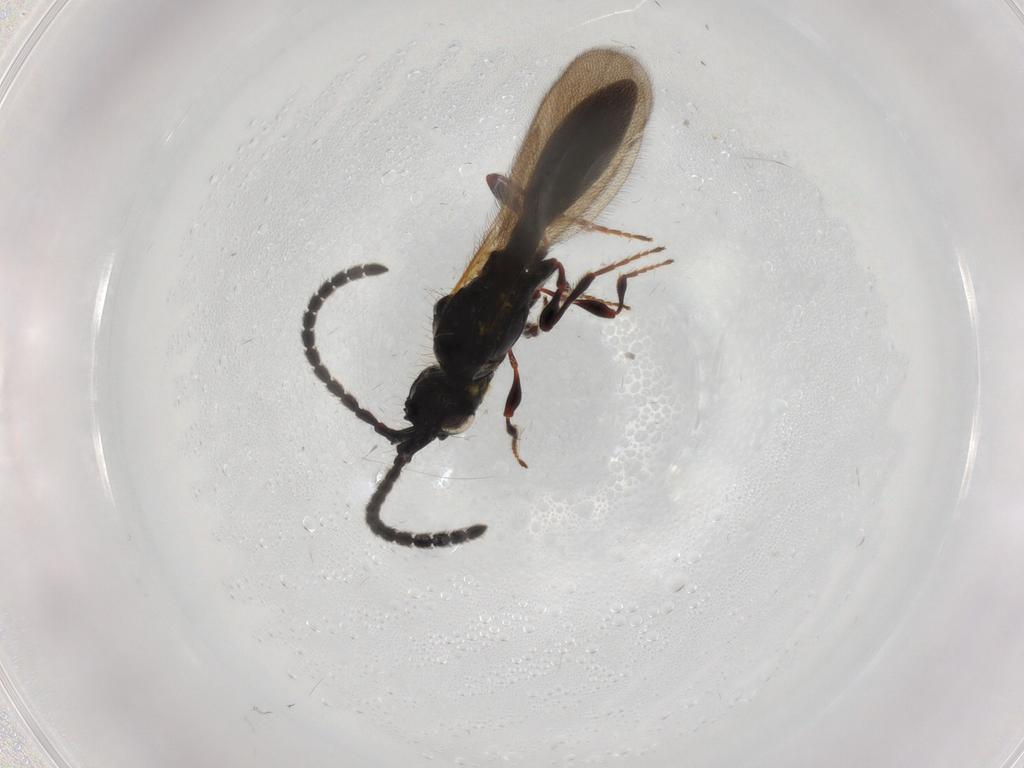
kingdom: Animalia
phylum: Arthropoda
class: Insecta
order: Hymenoptera
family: Diapriidae
